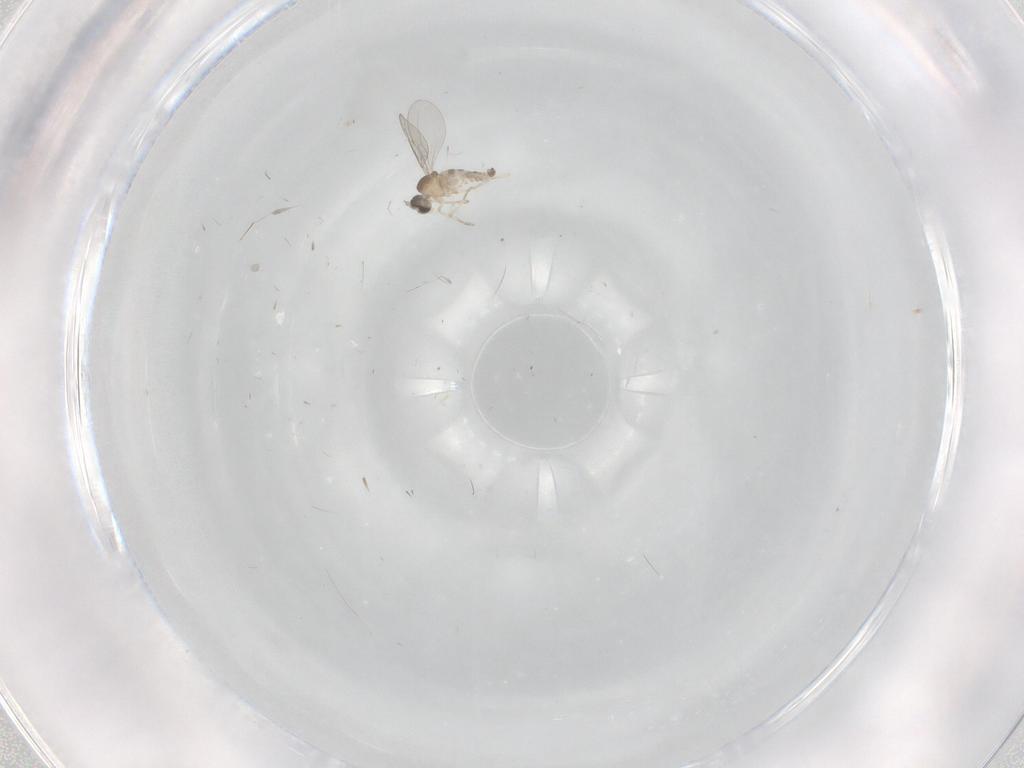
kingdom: Animalia
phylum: Arthropoda
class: Insecta
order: Diptera
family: Cecidomyiidae
